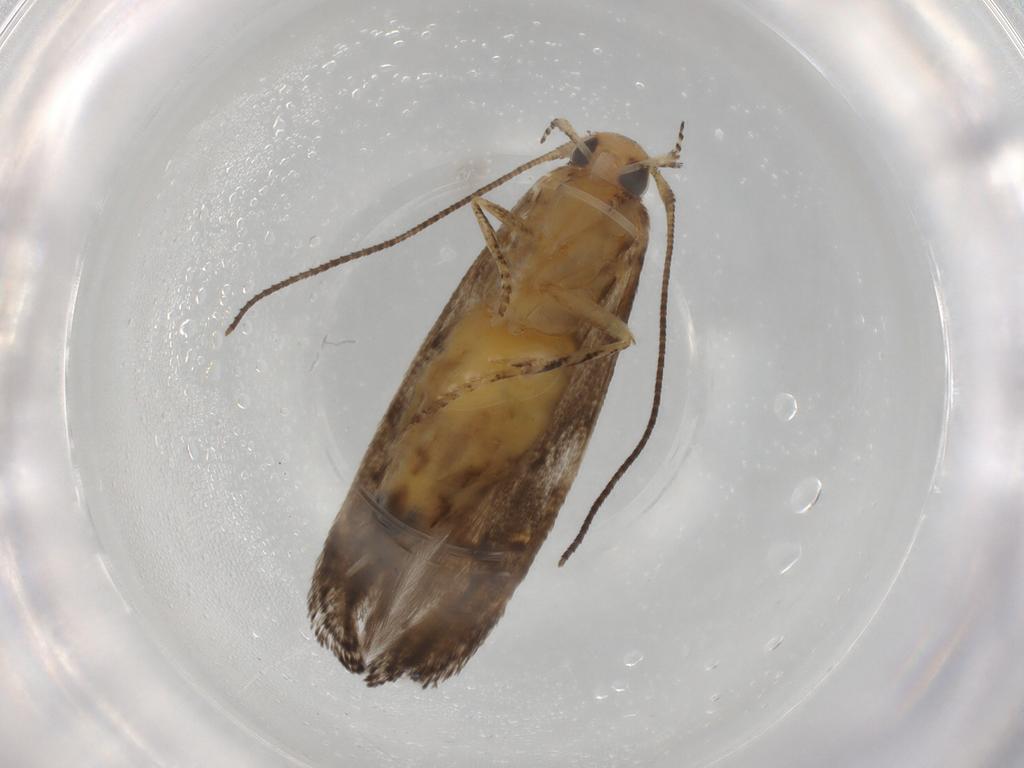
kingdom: Animalia
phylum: Arthropoda
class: Insecta
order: Lepidoptera
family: Gelechiidae
